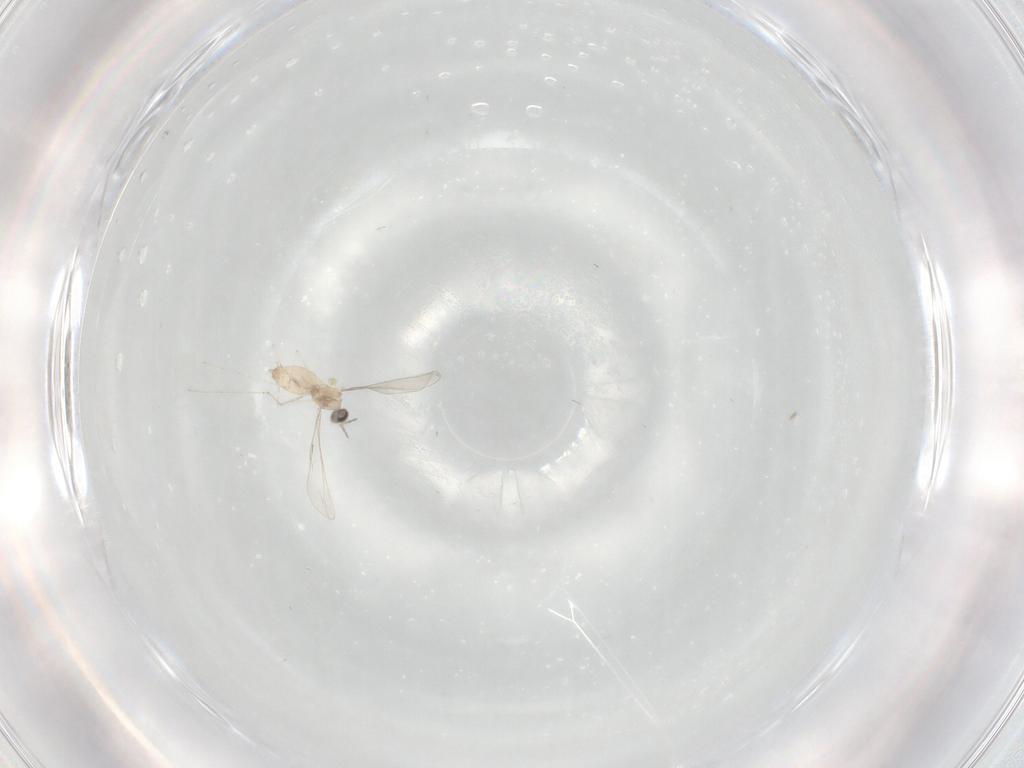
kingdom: Animalia
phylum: Arthropoda
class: Insecta
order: Diptera
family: Cecidomyiidae
